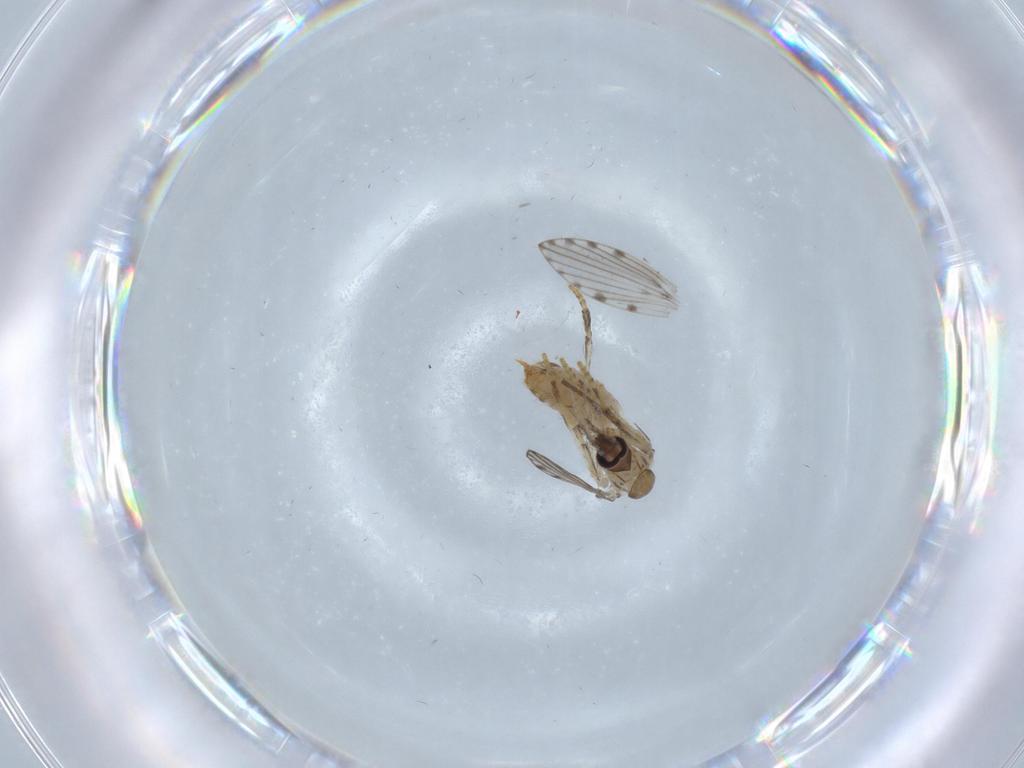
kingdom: Animalia
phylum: Arthropoda
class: Insecta
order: Diptera
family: Psychodidae
